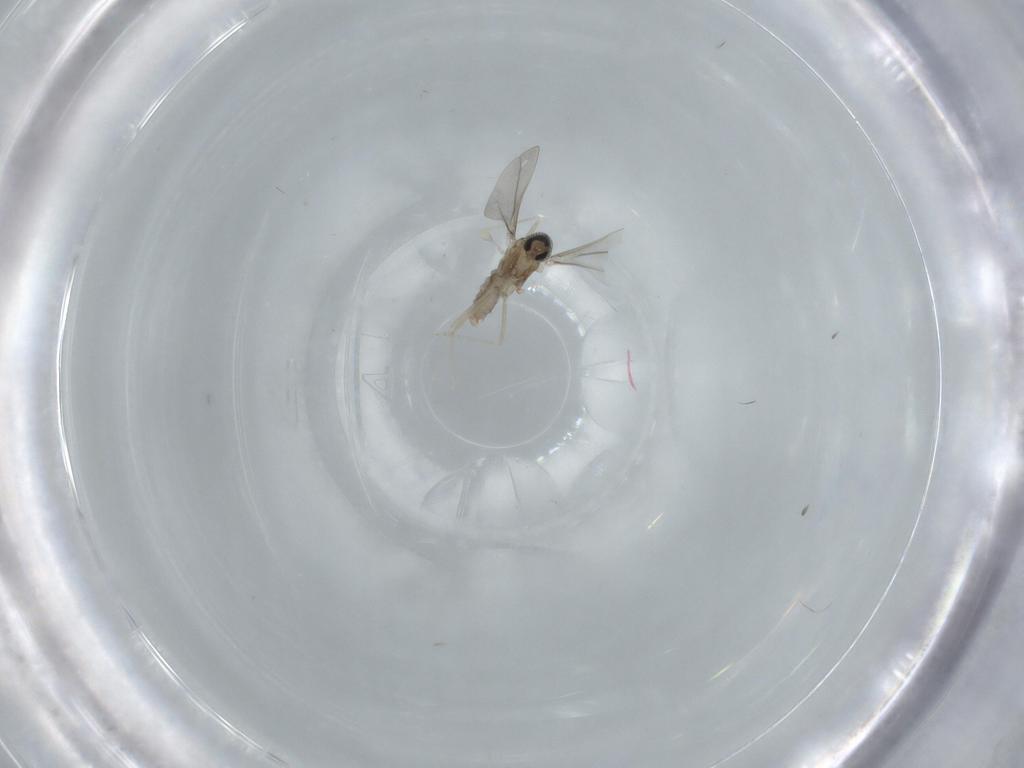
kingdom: Animalia
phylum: Arthropoda
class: Insecta
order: Diptera
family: Cecidomyiidae
